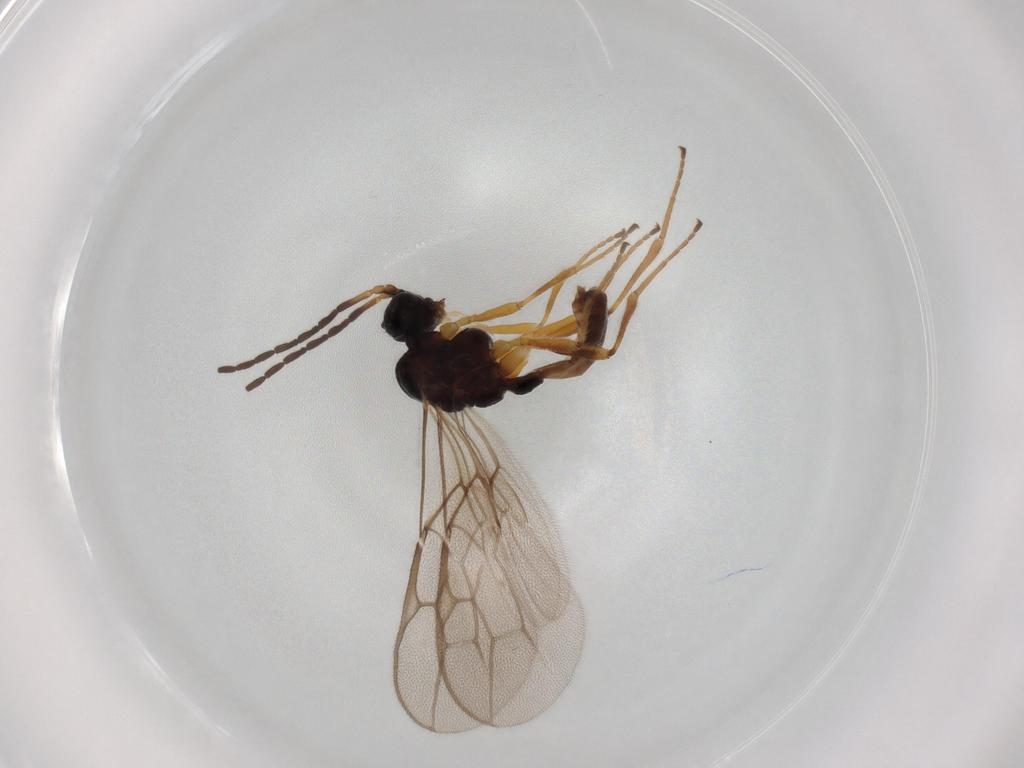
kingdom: Animalia
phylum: Arthropoda
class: Insecta
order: Hymenoptera
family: Braconidae
